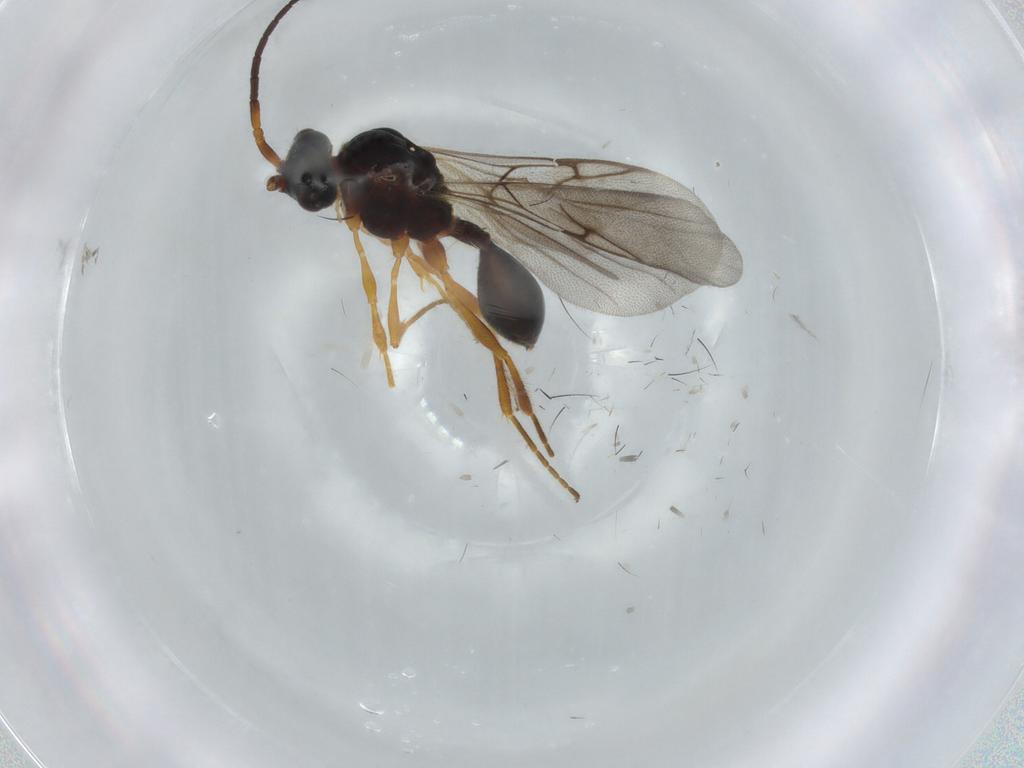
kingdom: Animalia
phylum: Arthropoda
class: Insecta
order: Hymenoptera
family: Diapriidae
